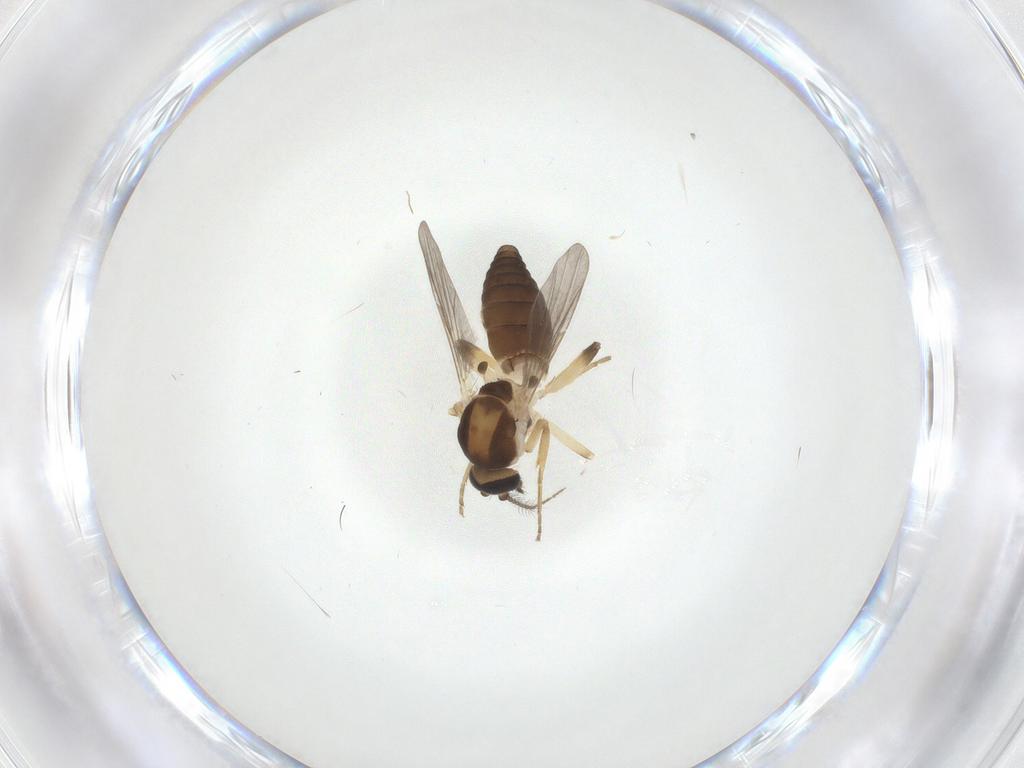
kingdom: Animalia
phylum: Arthropoda
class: Insecta
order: Diptera
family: Ceratopogonidae
